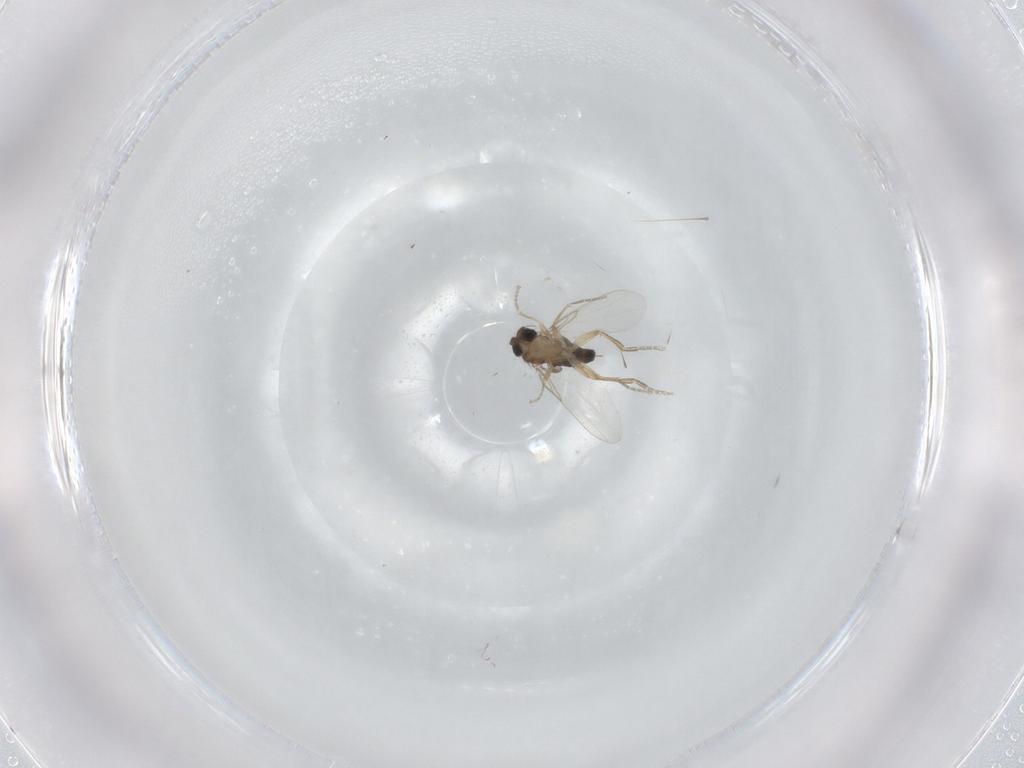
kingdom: Animalia
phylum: Arthropoda
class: Insecta
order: Diptera
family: Phoridae
